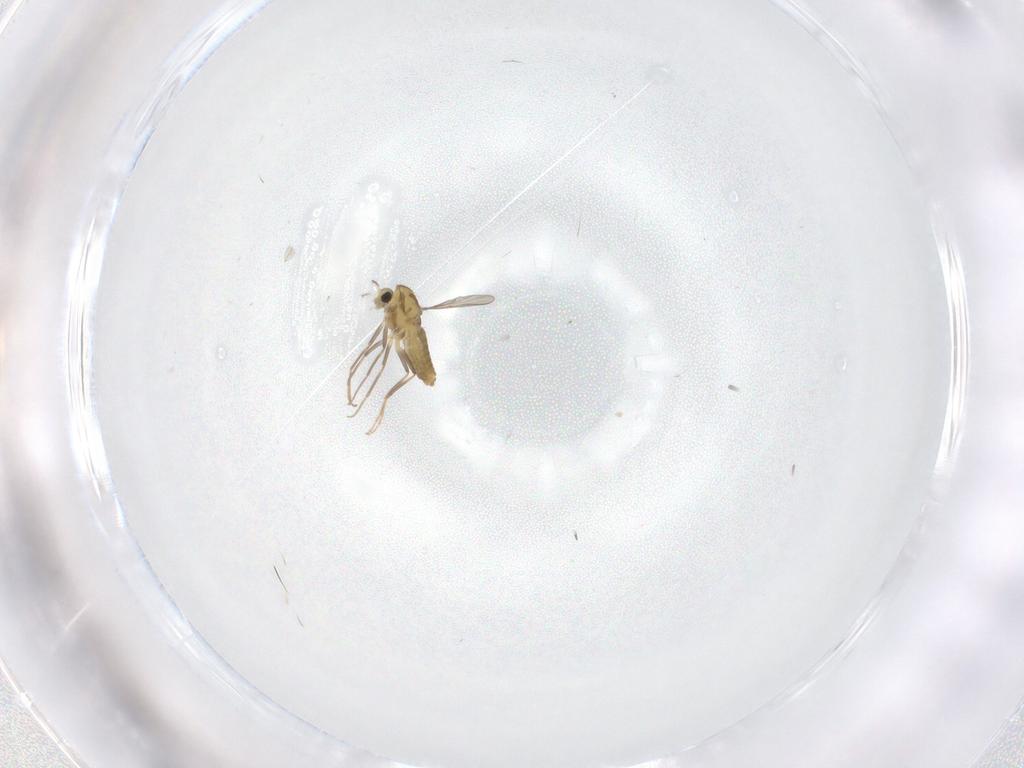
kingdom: Animalia
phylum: Arthropoda
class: Insecta
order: Diptera
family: Chironomidae
